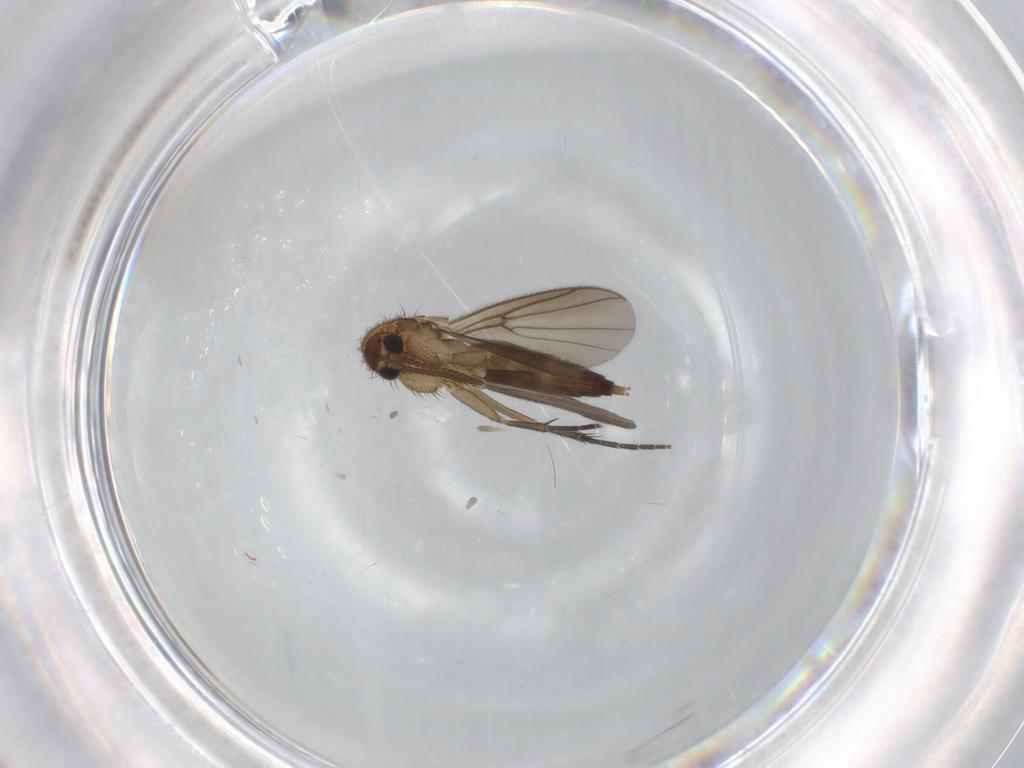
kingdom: Animalia
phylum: Arthropoda
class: Insecta
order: Diptera
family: Mycetophilidae
